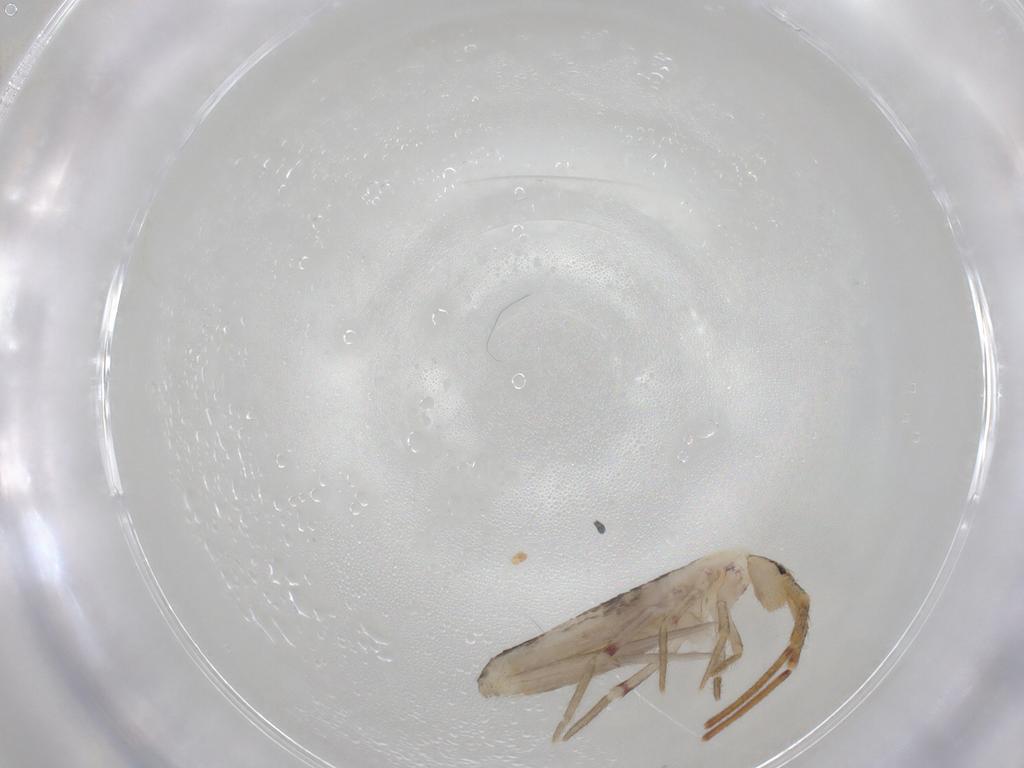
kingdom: Animalia
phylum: Arthropoda
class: Collembola
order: Poduromorpha
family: Hypogastruridae
